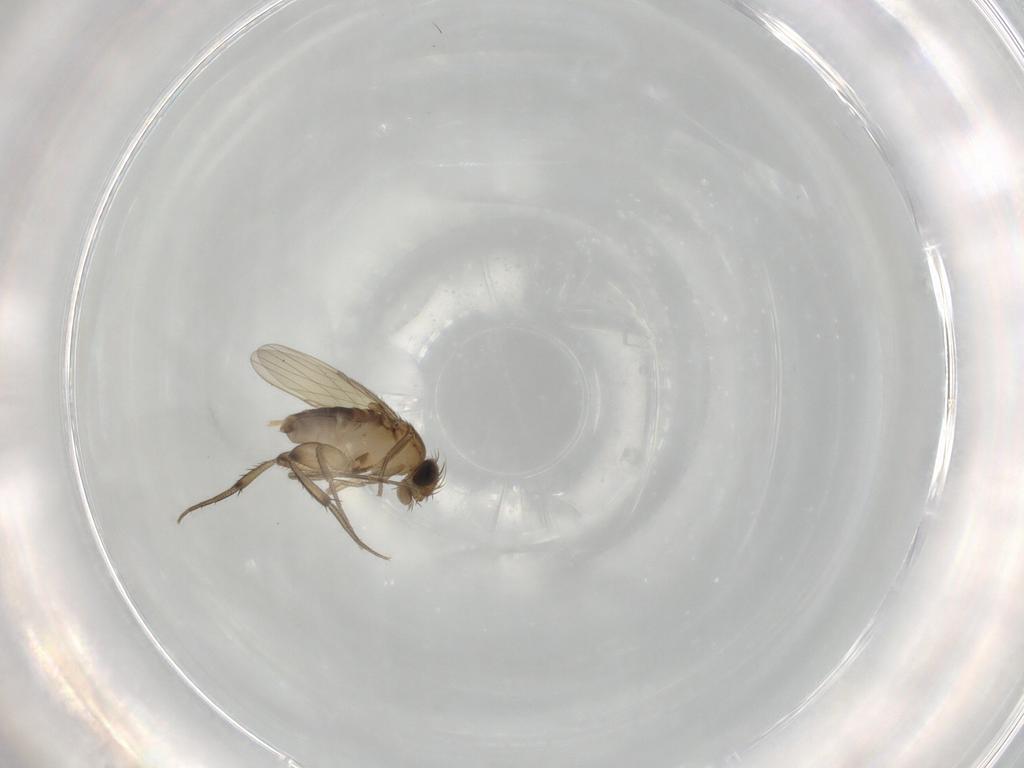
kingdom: Animalia
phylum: Arthropoda
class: Insecta
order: Diptera
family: Phoridae
